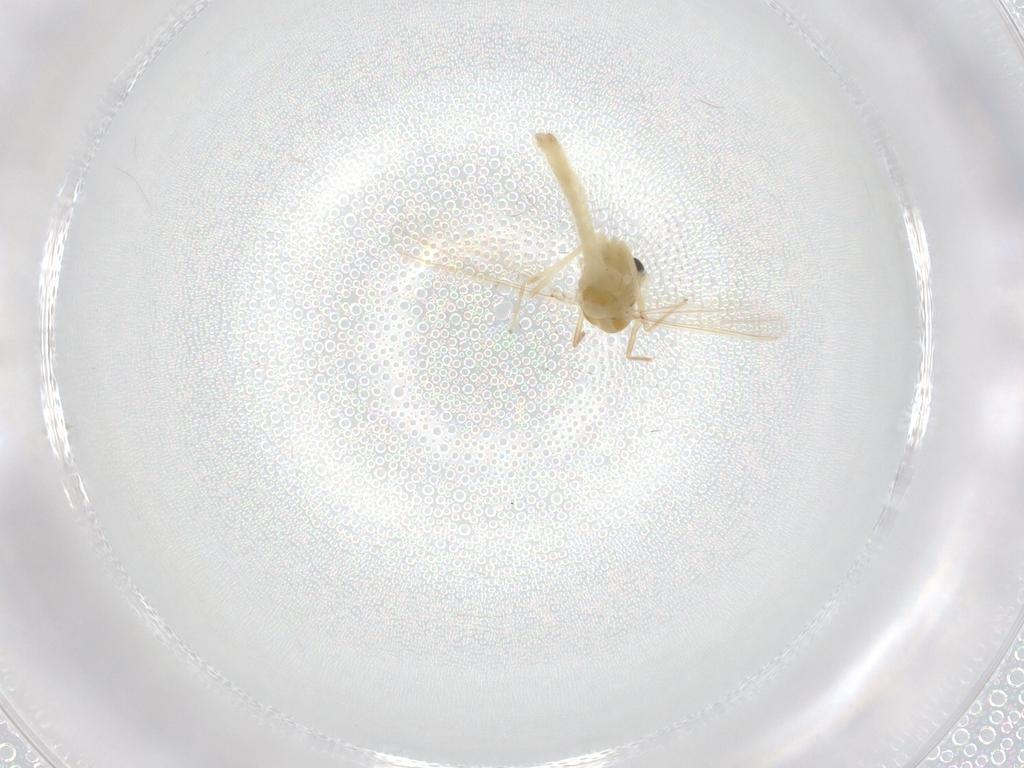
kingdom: Animalia
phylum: Arthropoda
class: Insecta
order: Diptera
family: Chironomidae
